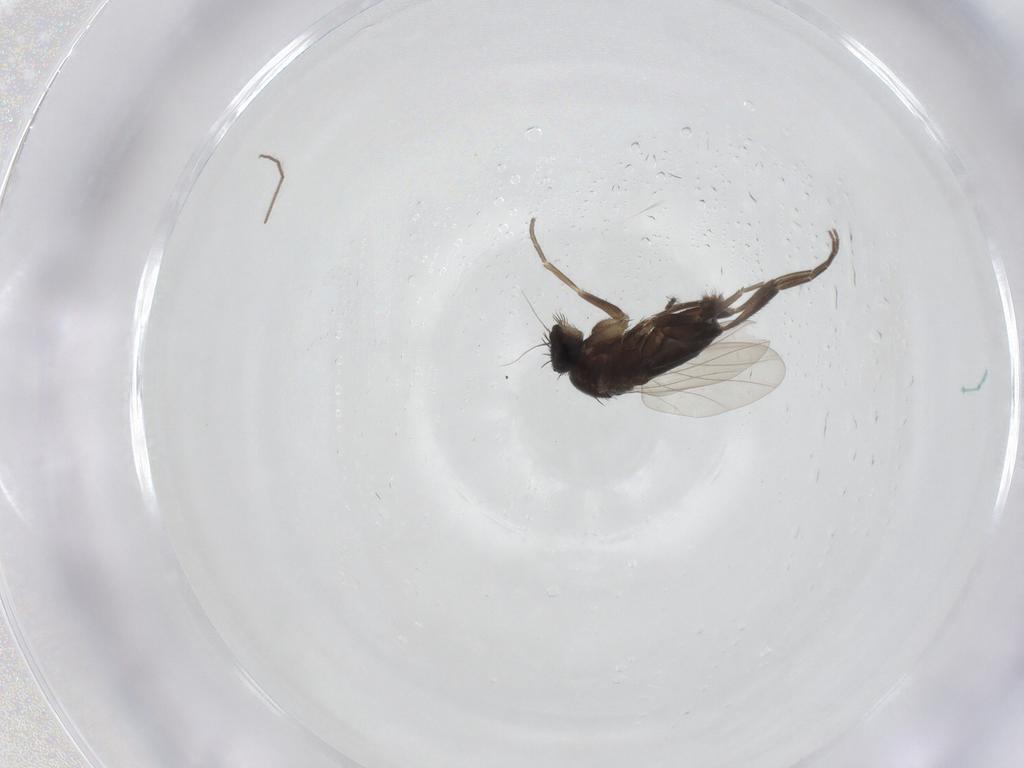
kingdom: Animalia
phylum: Arthropoda
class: Insecta
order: Diptera
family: Phoridae
